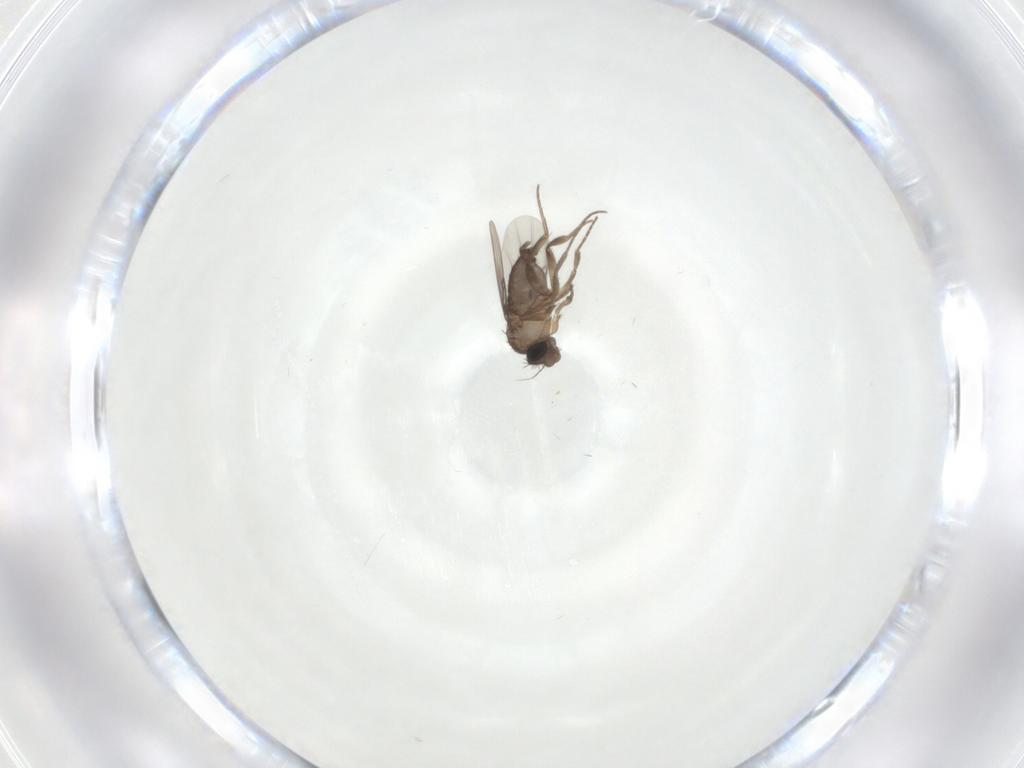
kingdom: Animalia
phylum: Arthropoda
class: Insecta
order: Diptera
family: Phoridae
